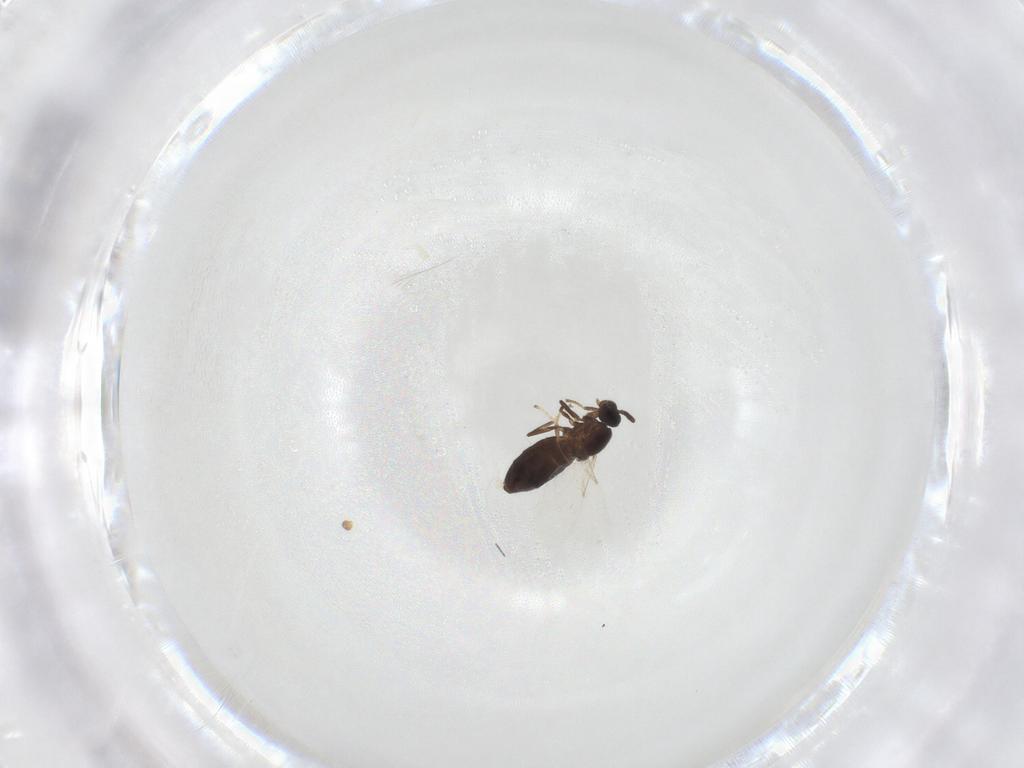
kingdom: Animalia
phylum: Arthropoda
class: Insecta
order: Diptera
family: Scatopsidae
